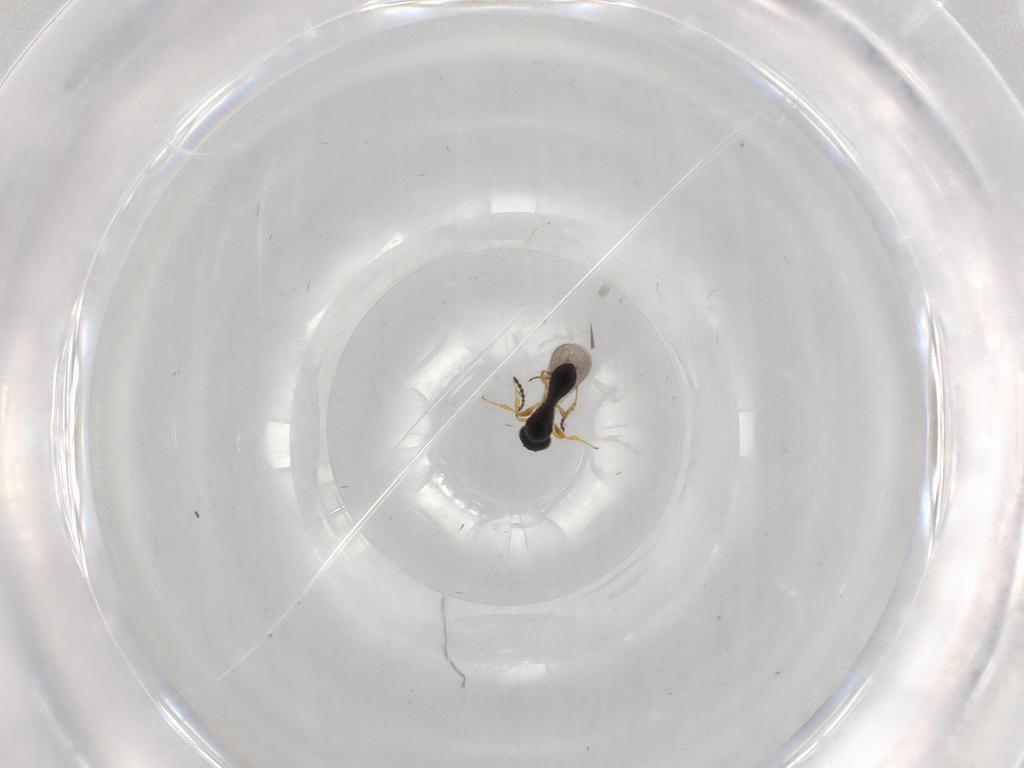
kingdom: Animalia
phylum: Arthropoda
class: Insecta
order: Hymenoptera
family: Platygastridae
